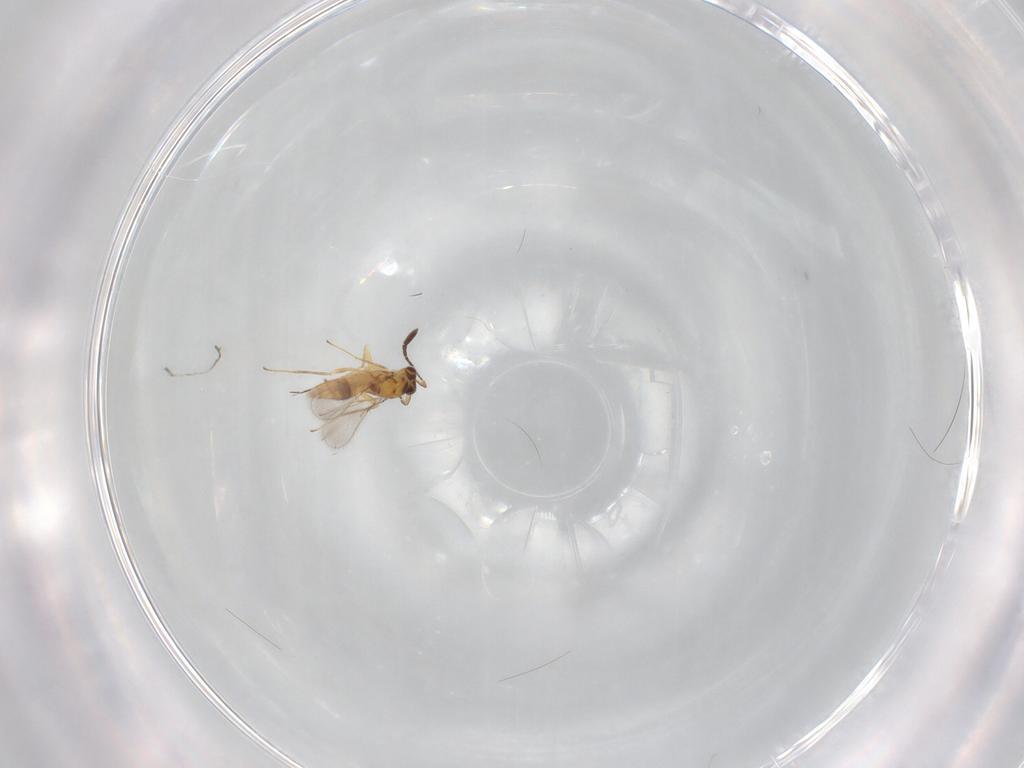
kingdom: Animalia
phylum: Arthropoda
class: Insecta
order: Hymenoptera
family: Mymaridae
